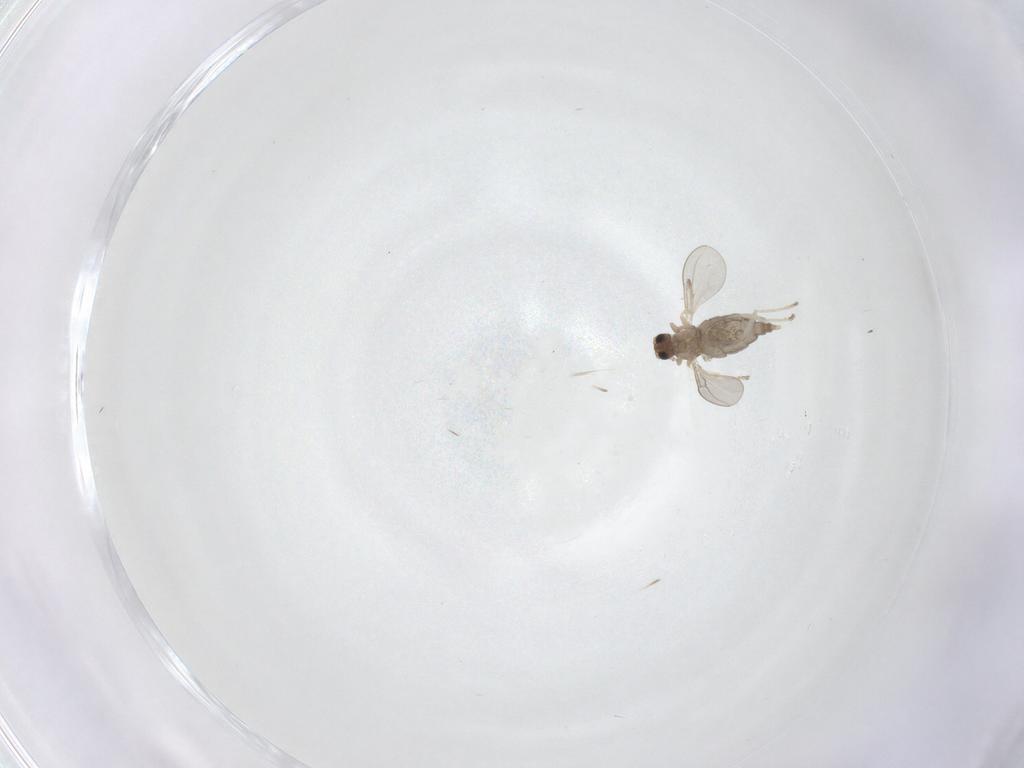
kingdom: Animalia
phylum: Arthropoda
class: Insecta
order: Diptera
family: Cecidomyiidae
